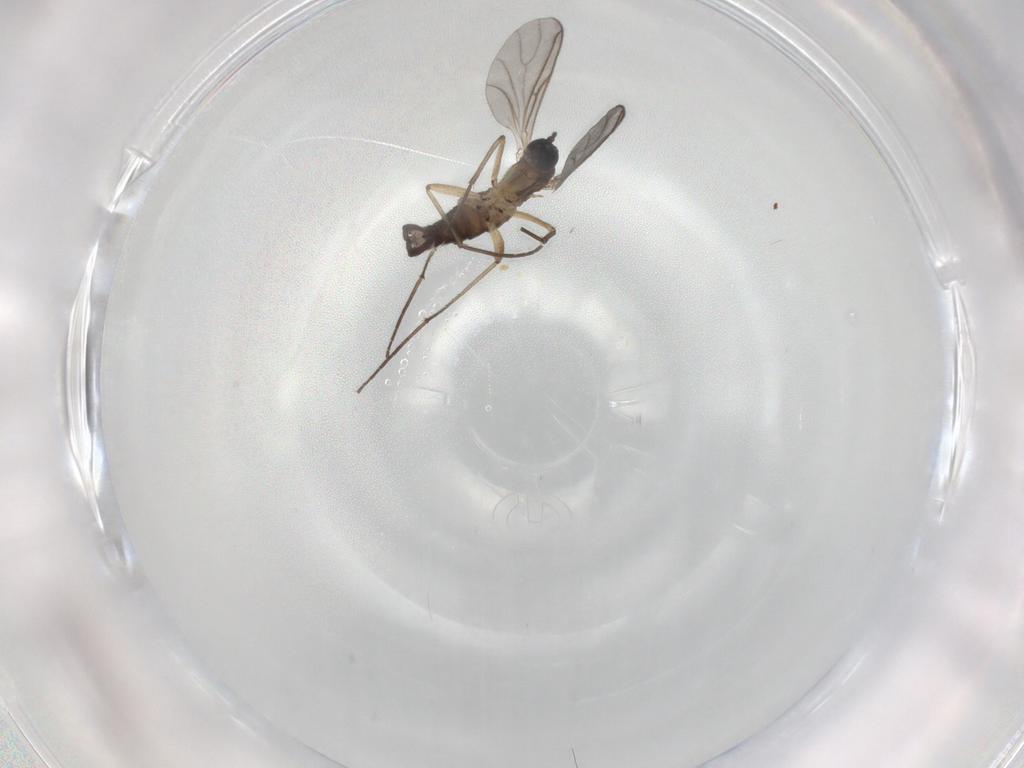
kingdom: Animalia
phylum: Arthropoda
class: Insecta
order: Diptera
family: Sciaridae
